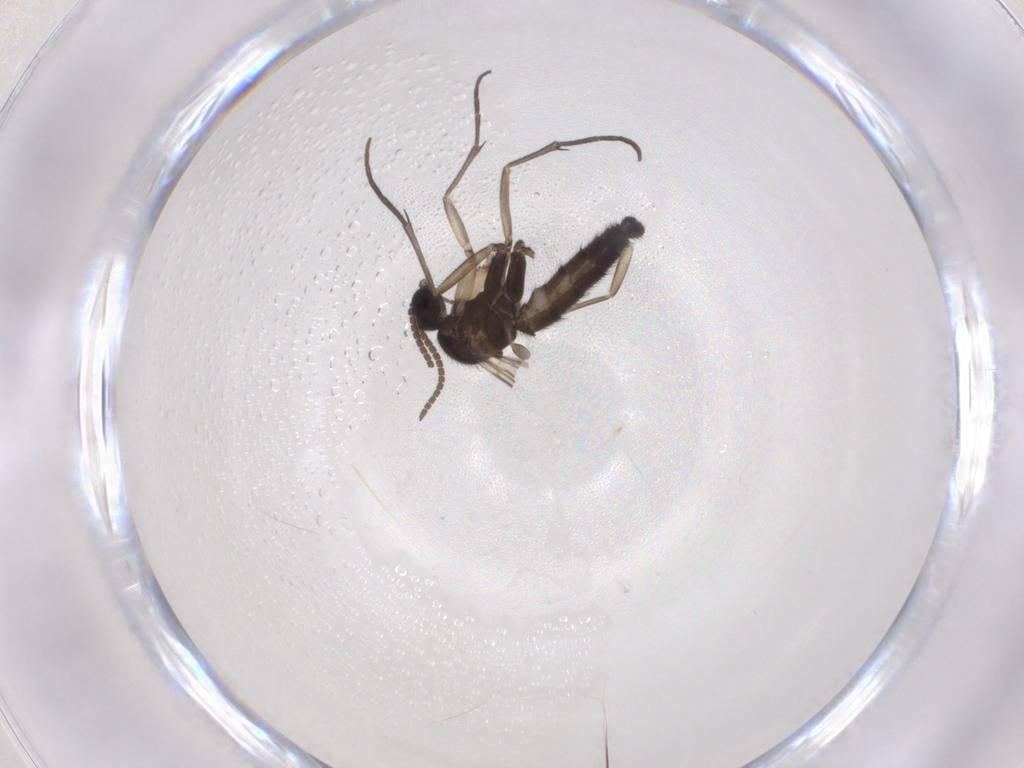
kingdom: Animalia
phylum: Arthropoda
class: Insecta
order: Diptera
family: Keroplatidae
